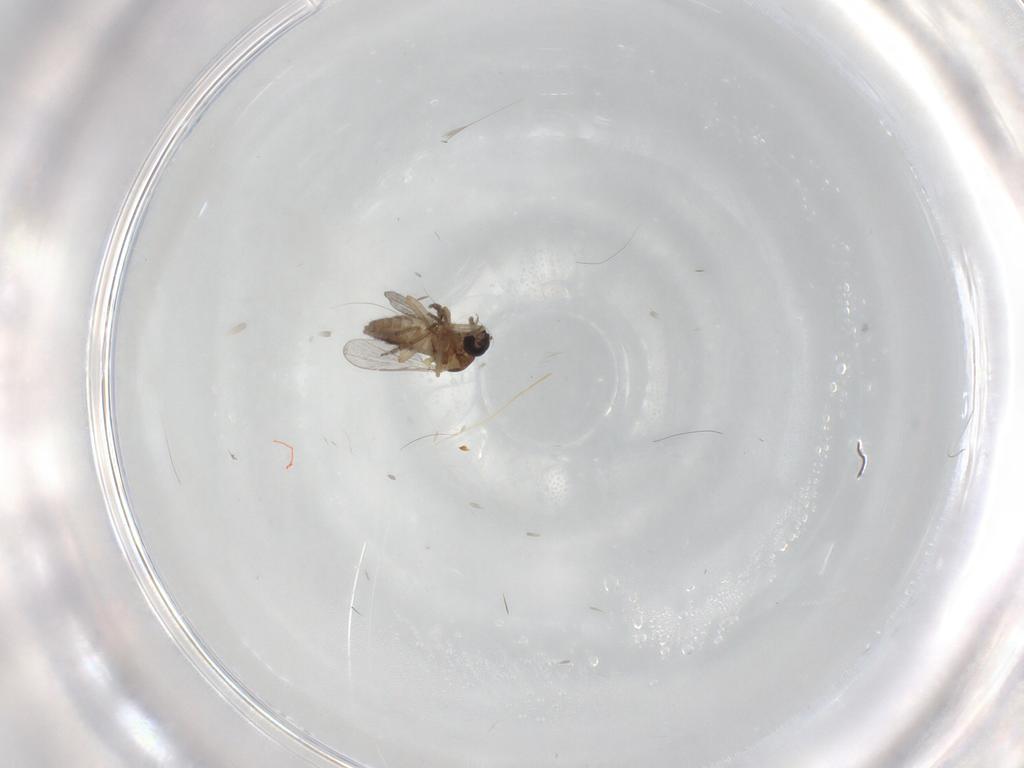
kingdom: Animalia
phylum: Arthropoda
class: Insecta
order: Diptera
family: Ceratopogonidae
